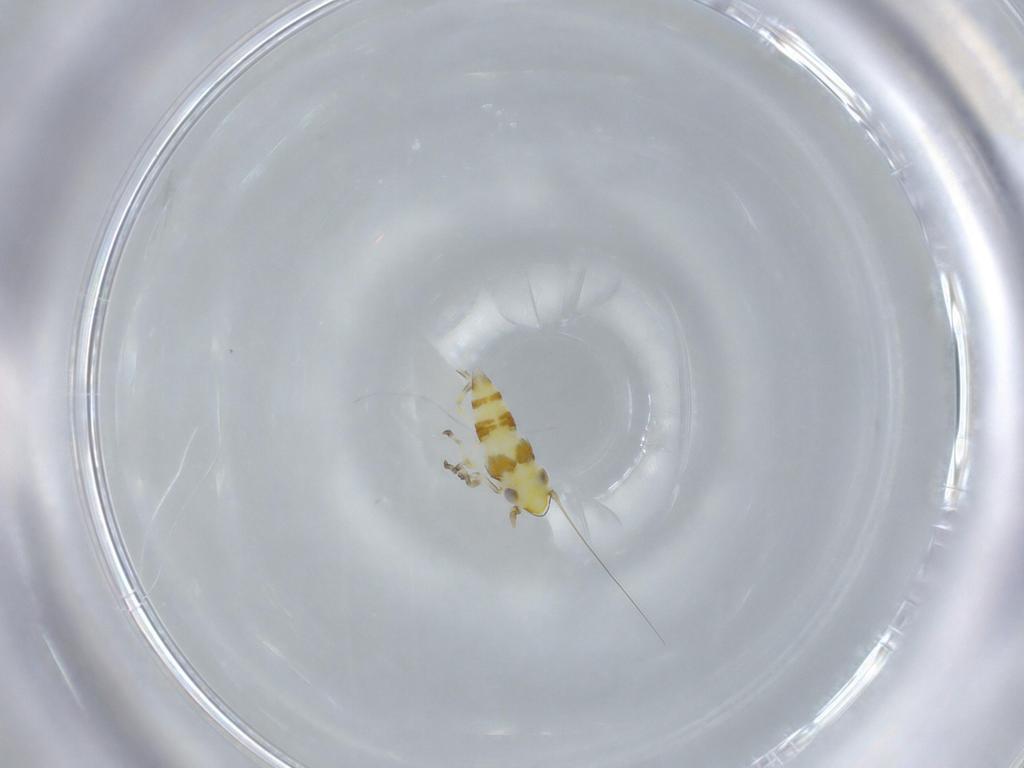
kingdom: Animalia
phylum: Arthropoda
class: Insecta
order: Hemiptera
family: Cicadellidae
